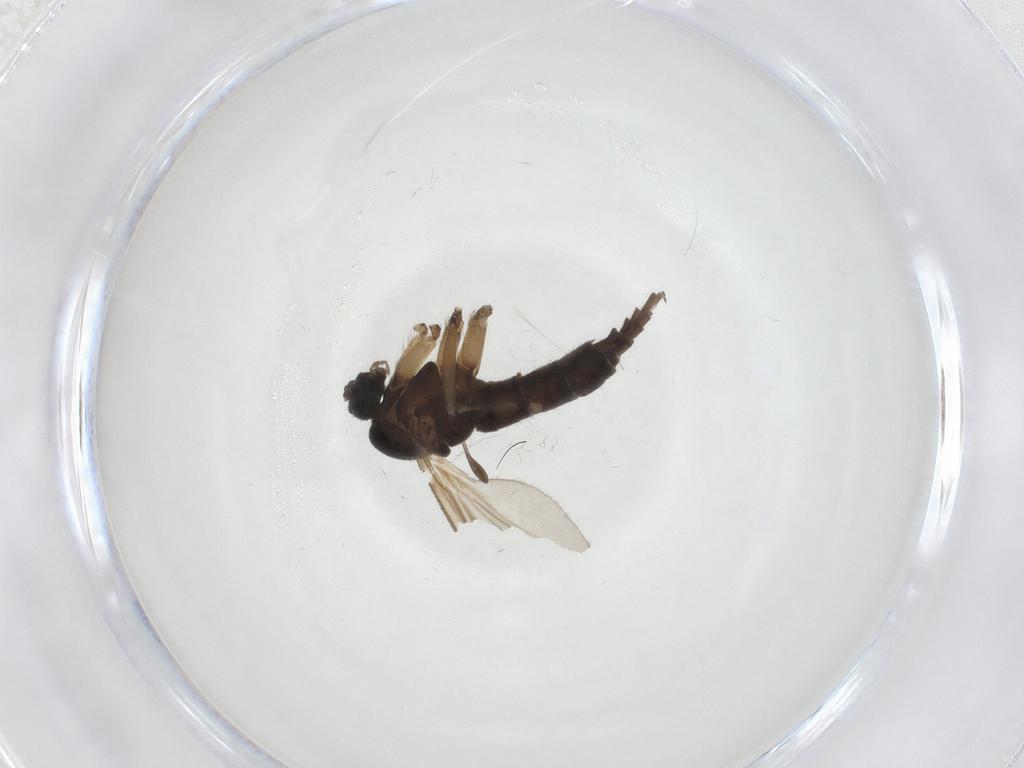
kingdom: Animalia
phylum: Arthropoda
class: Insecta
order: Diptera
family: Sciaridae
